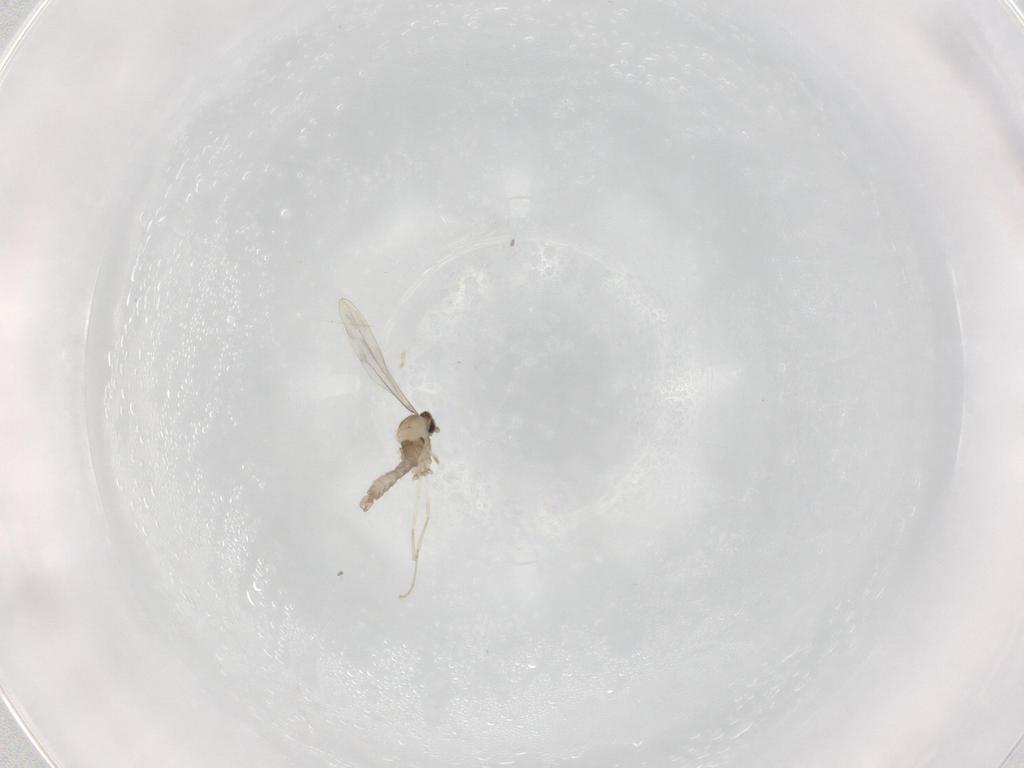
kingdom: Animalia
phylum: Arthropoda
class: Insecta
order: Diptera
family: Cecidomyiidae
